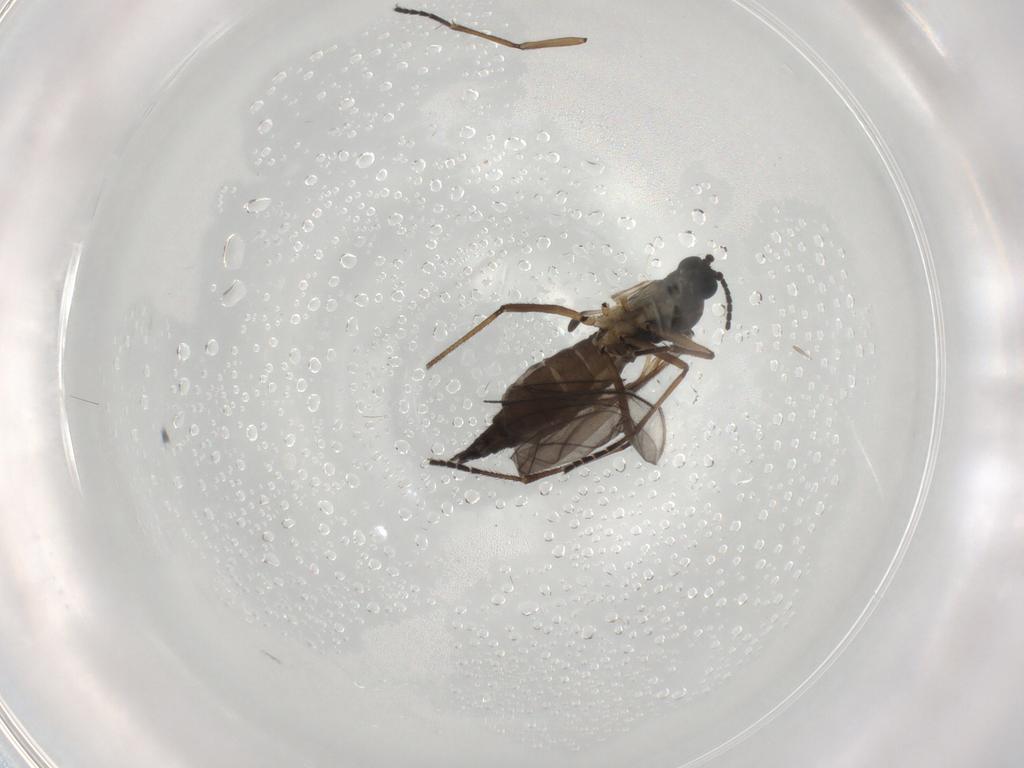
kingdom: Animalia
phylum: Arthropoda
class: Insecta
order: Diptera
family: Sciaridae
